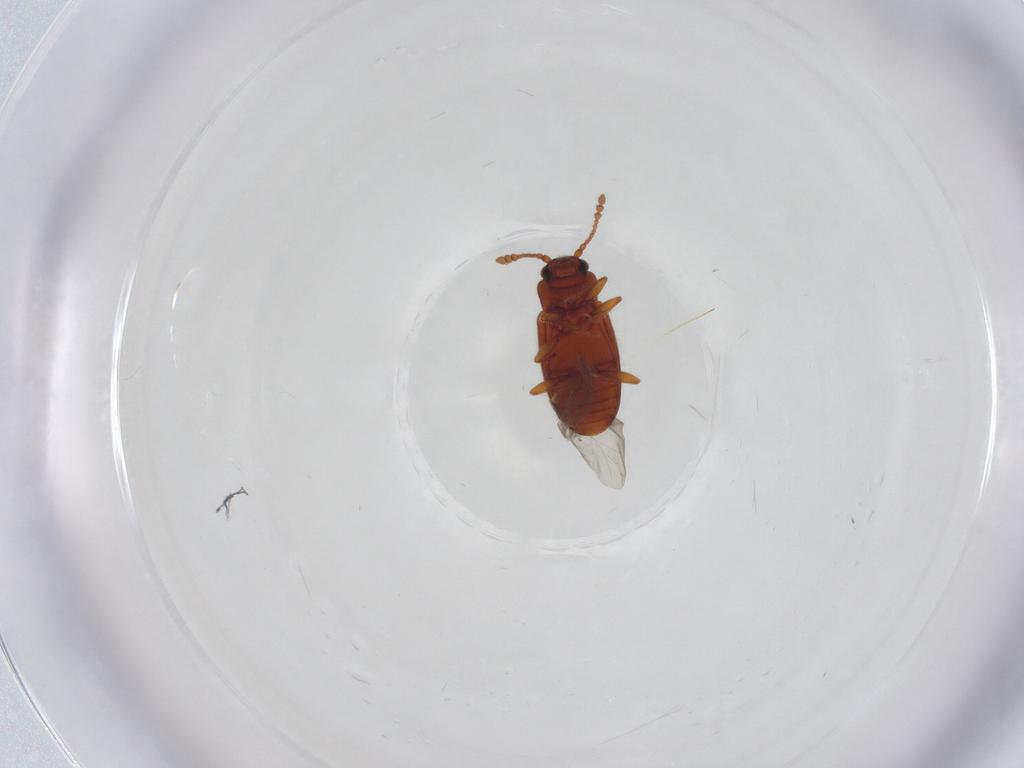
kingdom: Animalia
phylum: Arthropoda
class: Insecta
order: Coleoptera
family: Cryptophagidae
